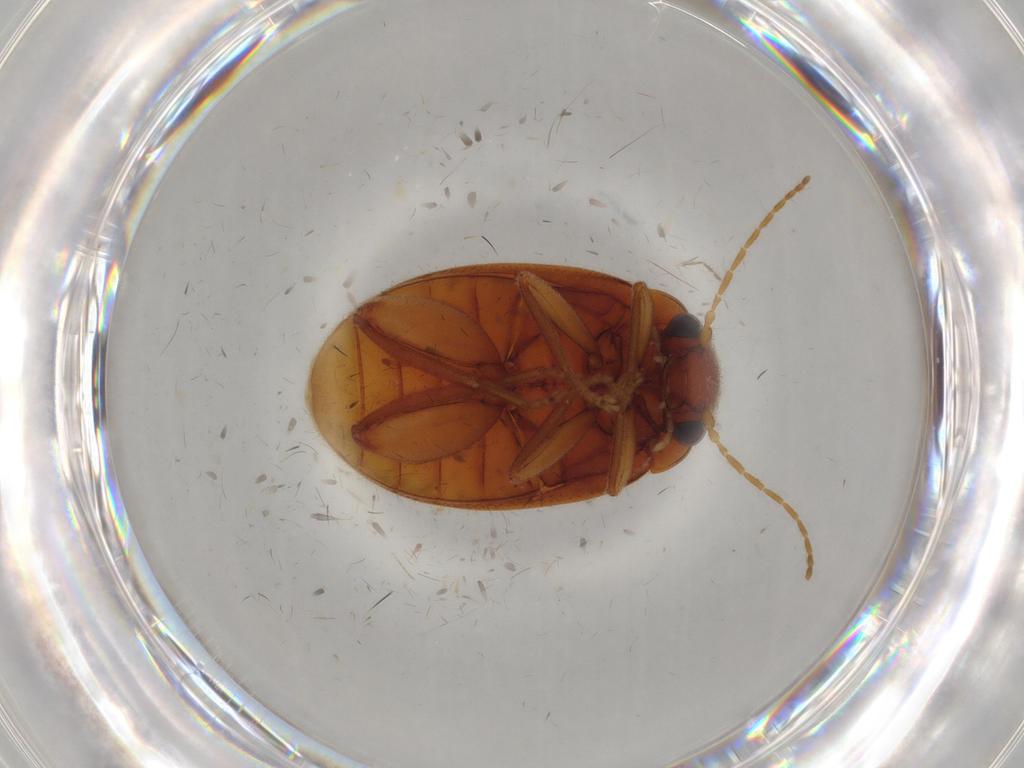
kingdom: Animalia
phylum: Arthropoda
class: Insecta
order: Coleoptera
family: Scirtidae
